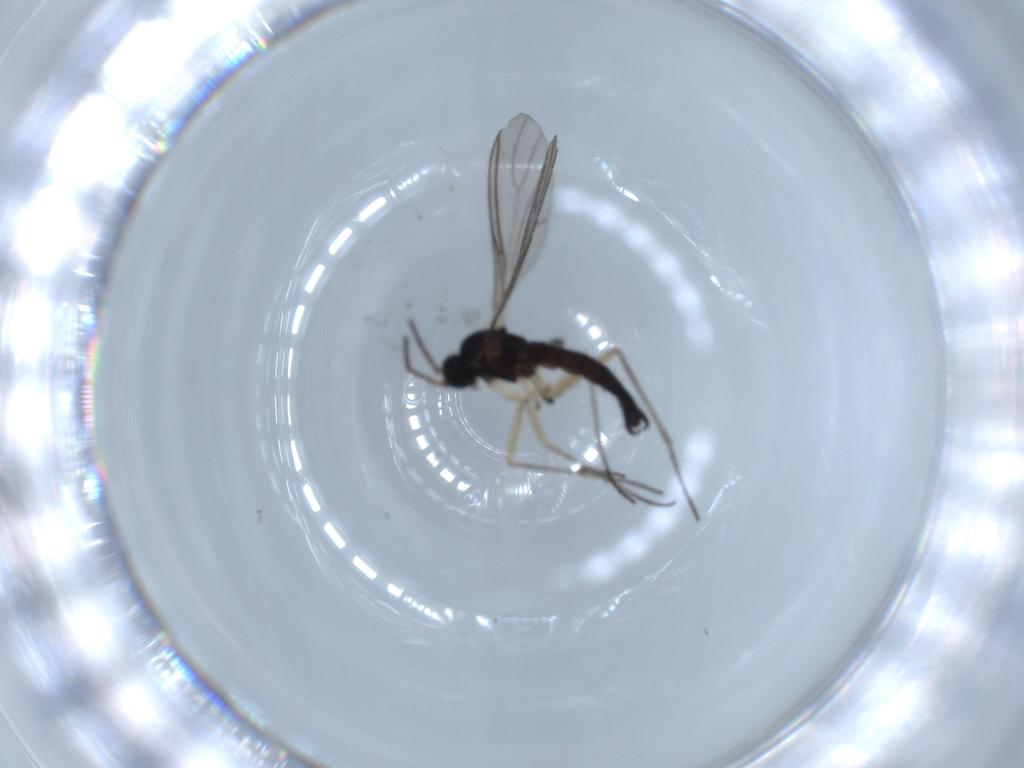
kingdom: Animalia
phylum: Arthropoda
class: Insecta
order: Diptera
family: Sciaridae
